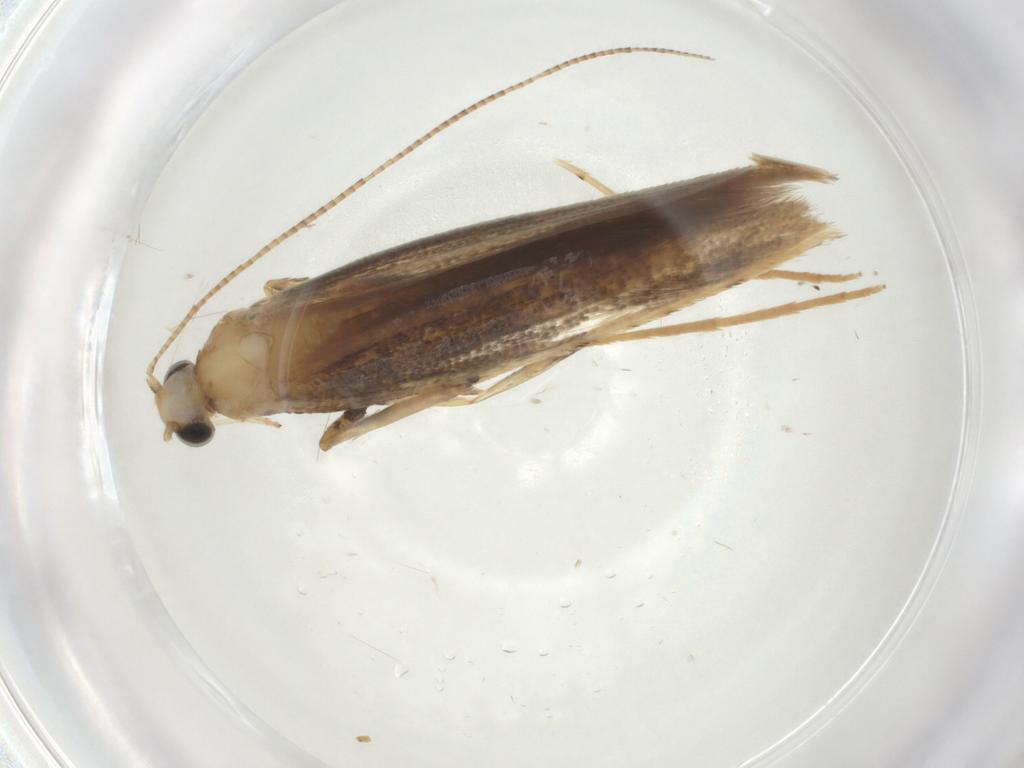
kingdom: Animalia
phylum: Arthropoda
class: Insecta
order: Lepidoptera
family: Gracillariidae
